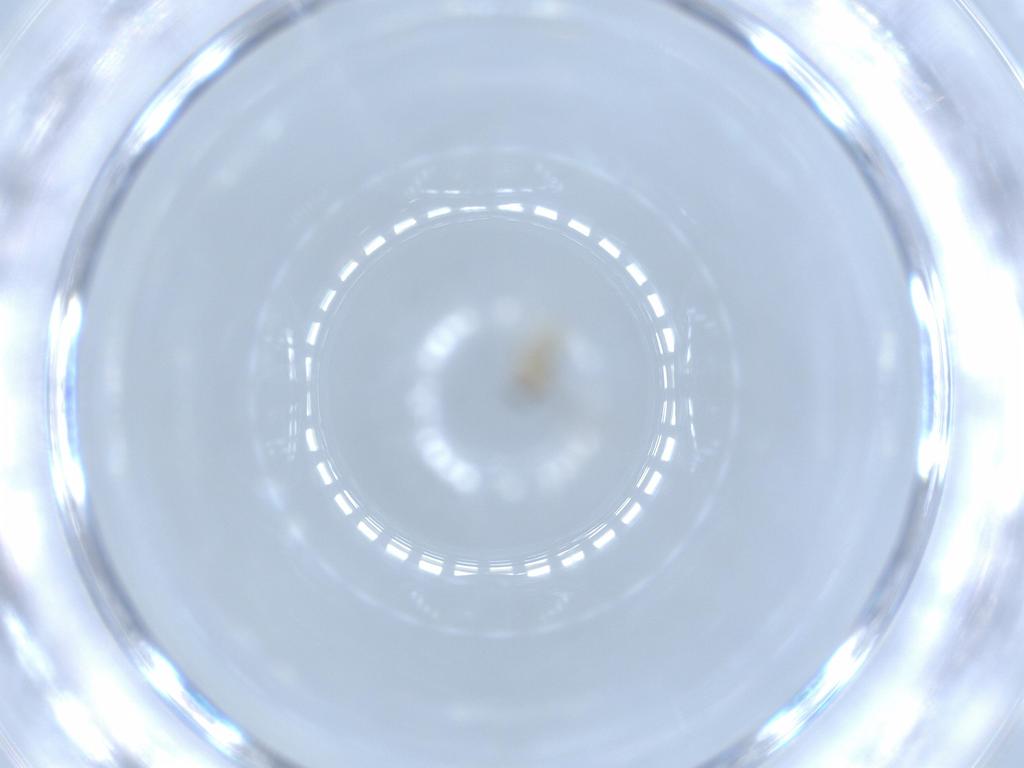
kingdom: Animalia
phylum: Arthropoda
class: Insecta
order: Diptera
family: Cecidomyiidae
